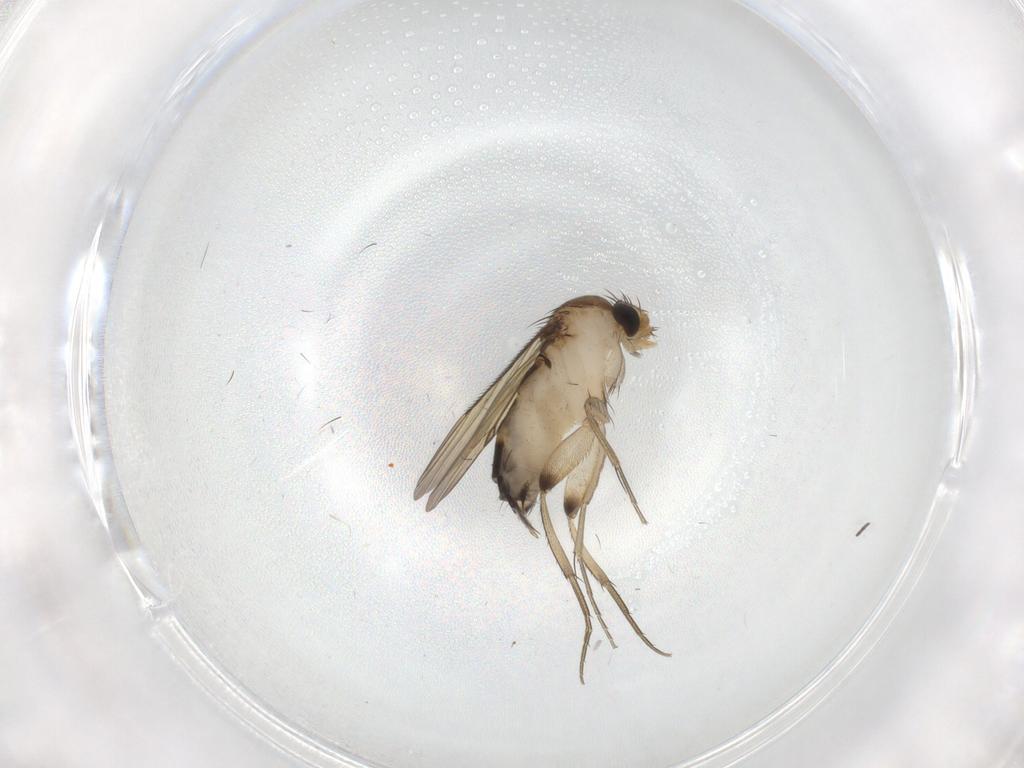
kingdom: Animalia
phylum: Arthropoda
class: Insecta
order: Diptera
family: Phoridae
